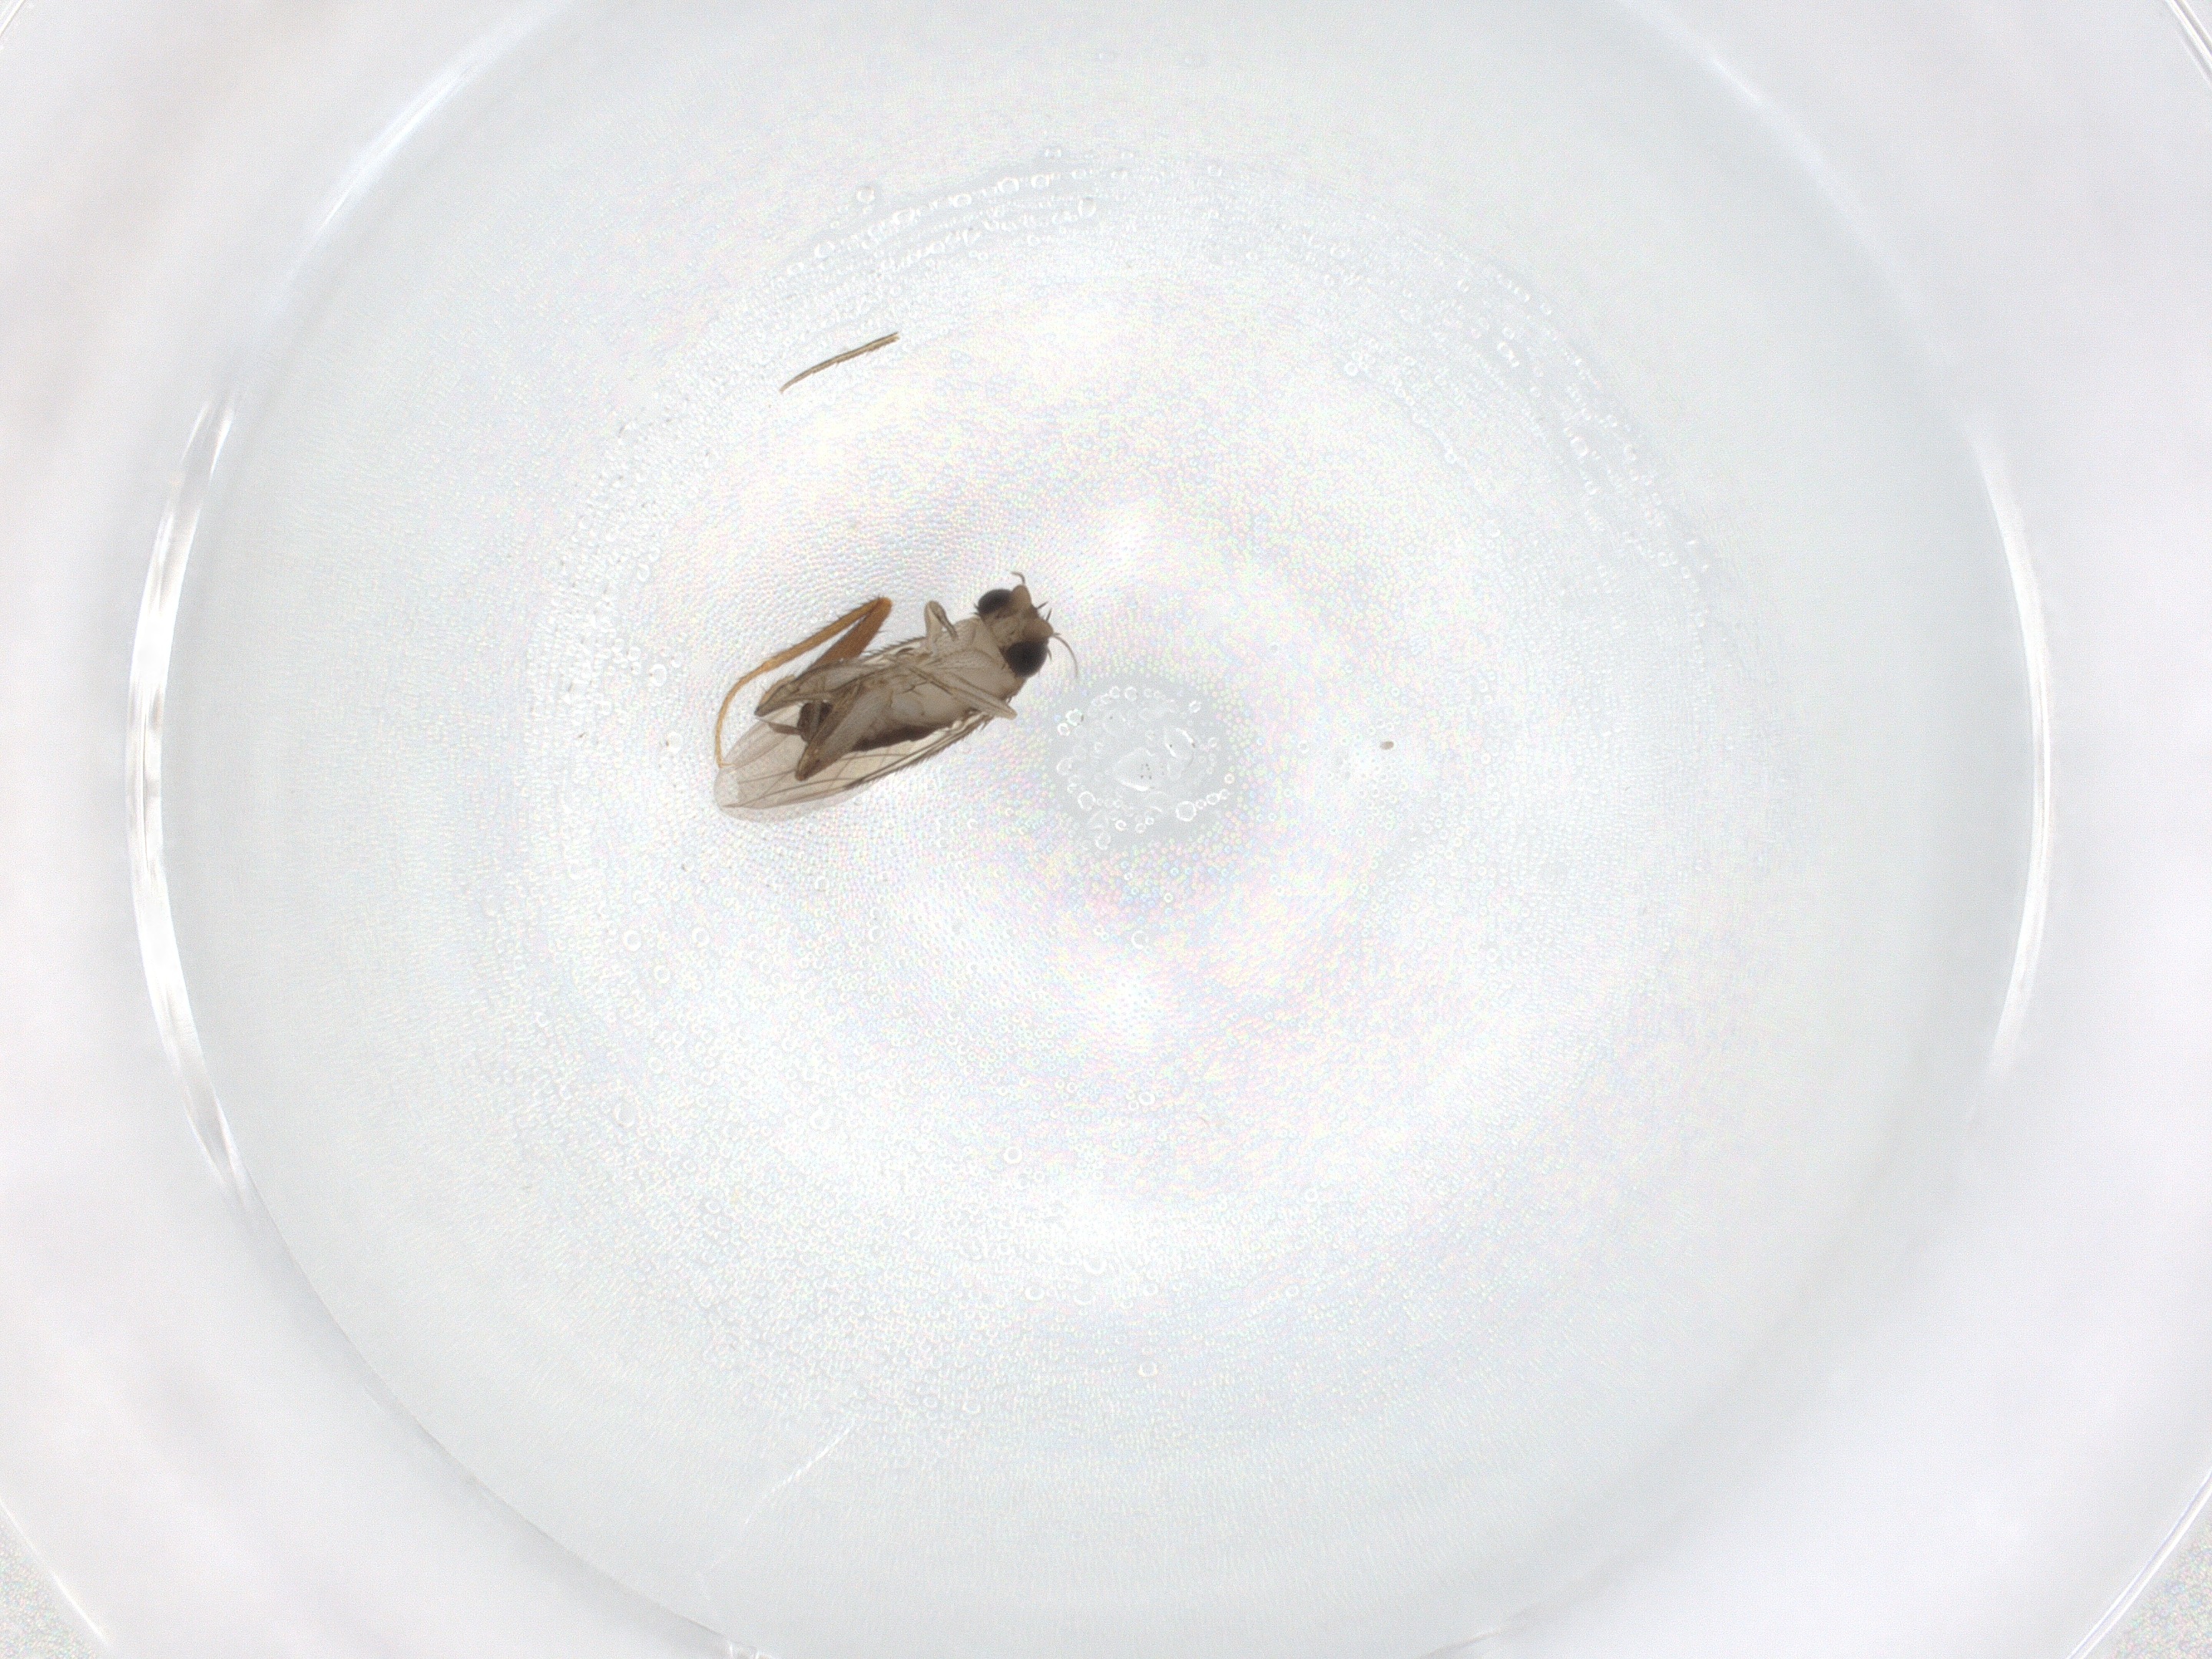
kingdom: Animalia
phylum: Arthropoda
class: Insecta
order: Diptera
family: Phoridae
